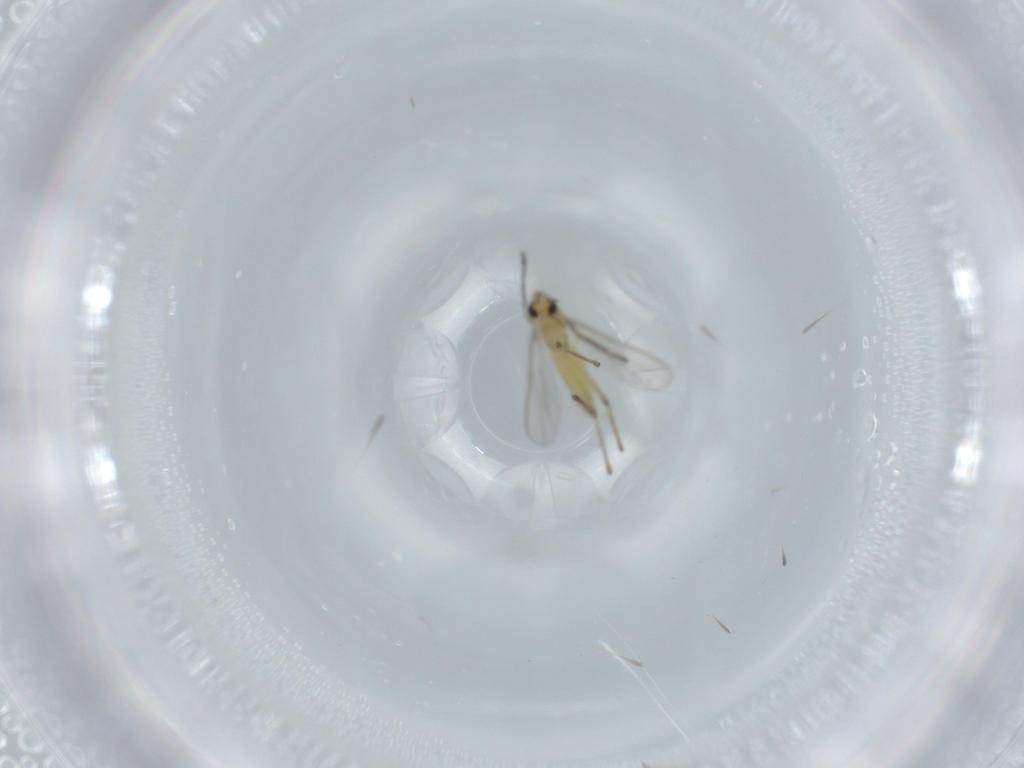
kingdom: Animalia
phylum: Arthropoda
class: Insecta
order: Diptera
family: Chironomidae
